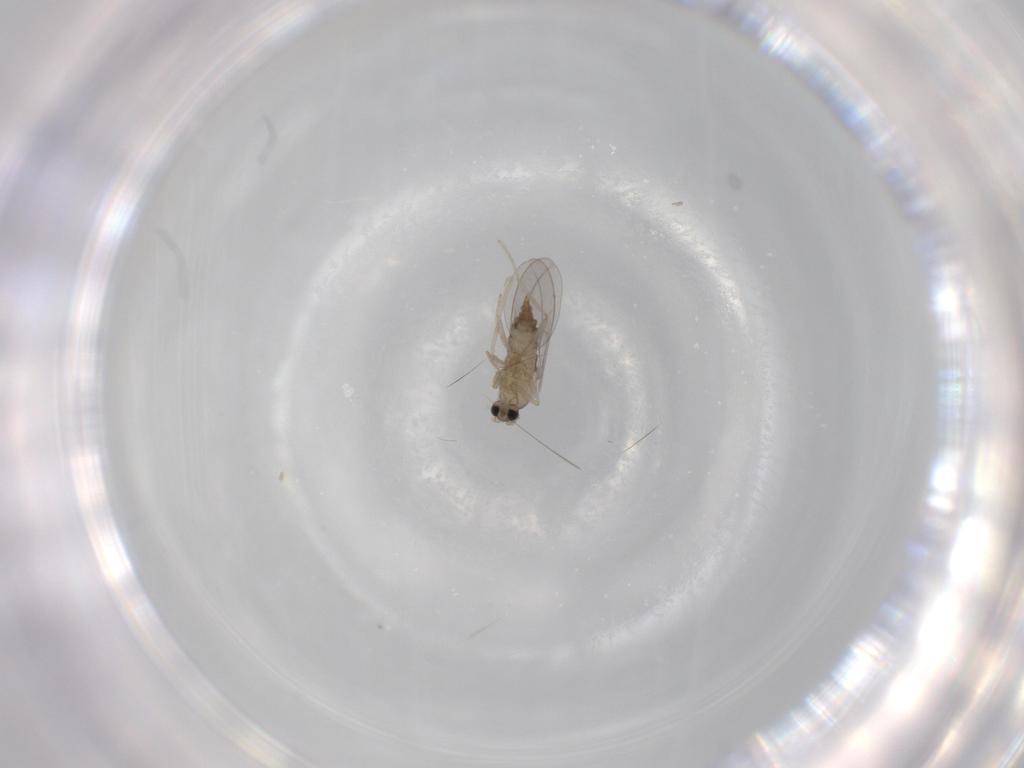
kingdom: Animalia
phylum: Arthropoda
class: Insecta
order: Diptera
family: Cecidomyiidae
